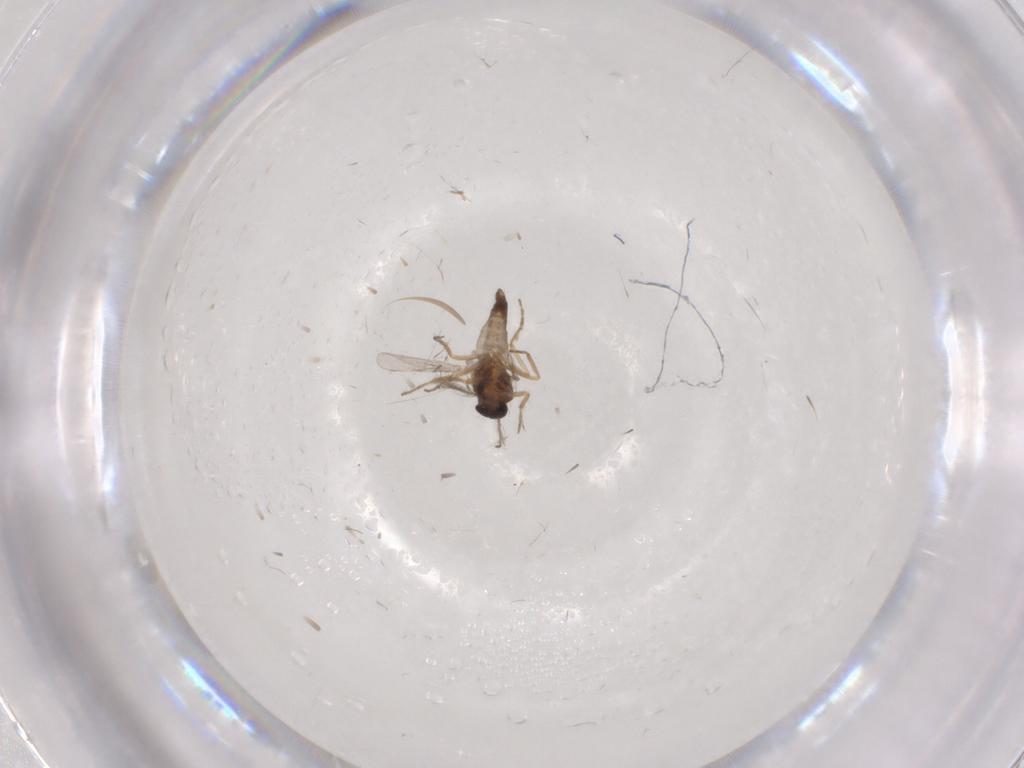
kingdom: Animalia
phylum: Arthropoda
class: Insecta
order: Diptera
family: Ceratopogonidae
